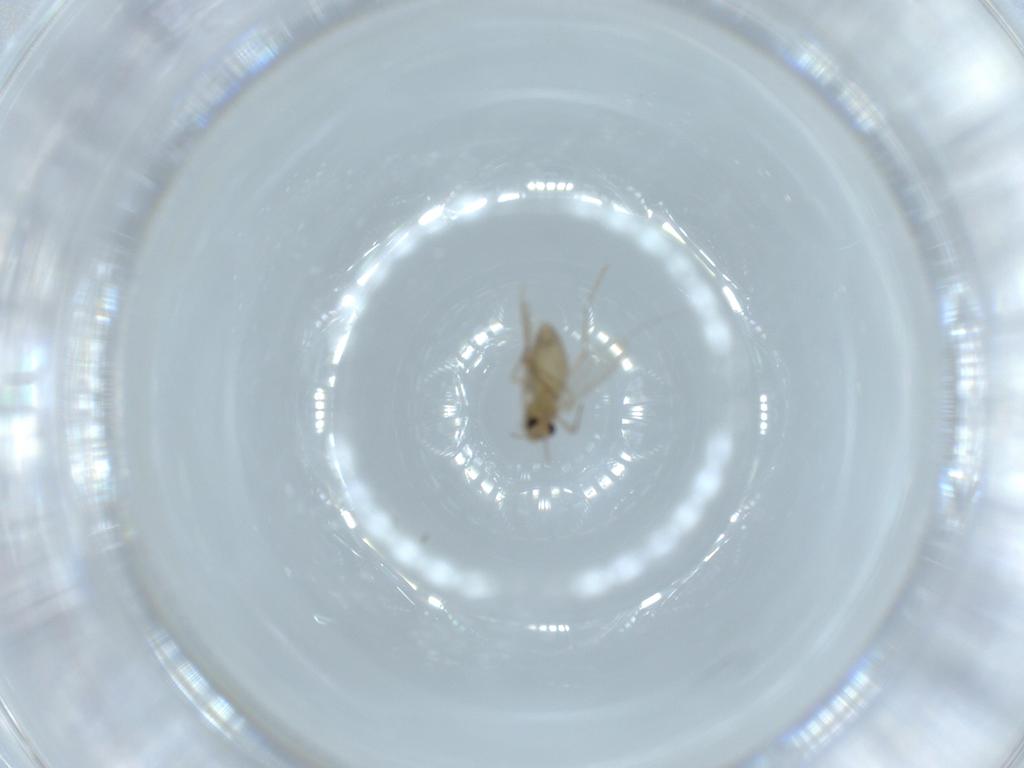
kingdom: Animalia
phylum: Arthropoda
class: Insecta
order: Diptera
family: Chironomidae
